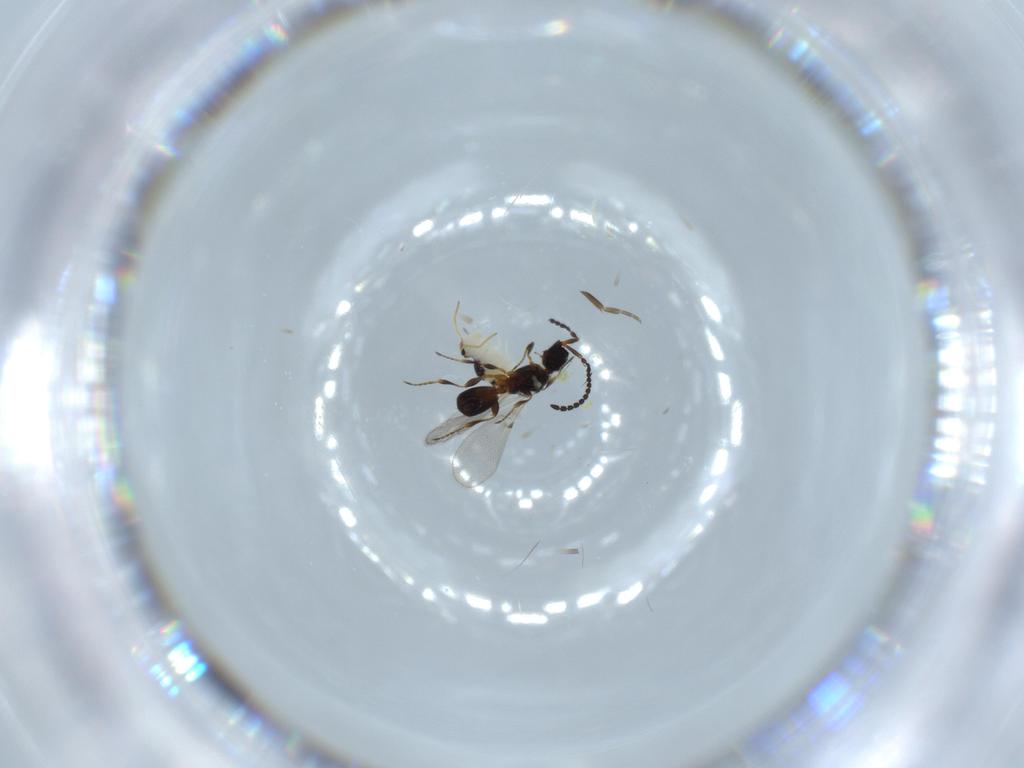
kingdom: Animalia
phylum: Arthropoda
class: Collembola
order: Symphypleona
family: Bourletiellidae
